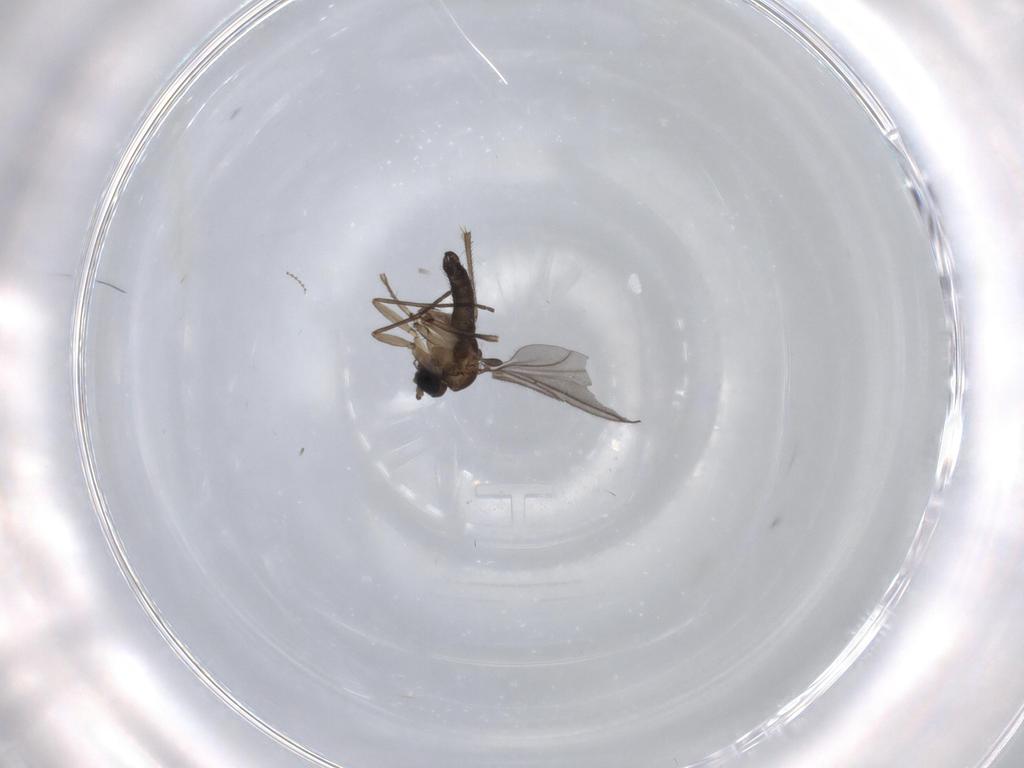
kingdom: Animalia
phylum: Arthropoda
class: Insecta
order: Diptera
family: Sciaridae
